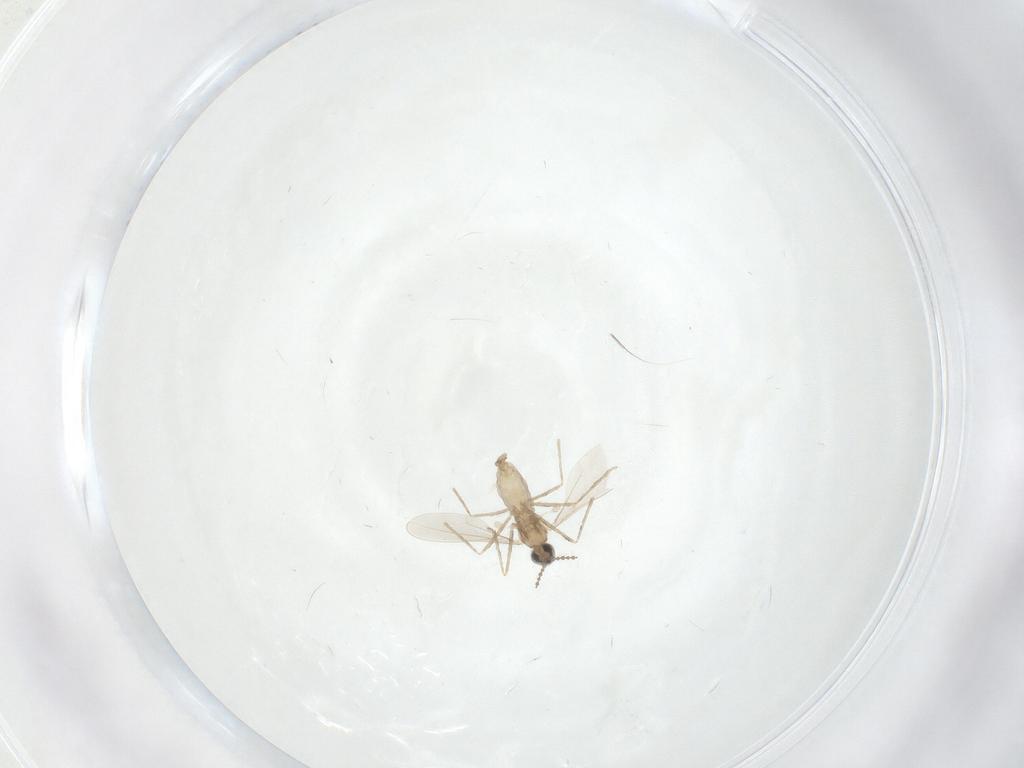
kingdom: Animalia
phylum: Arthropoda
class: Insecta
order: Diptera
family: Cecidomyiidae
